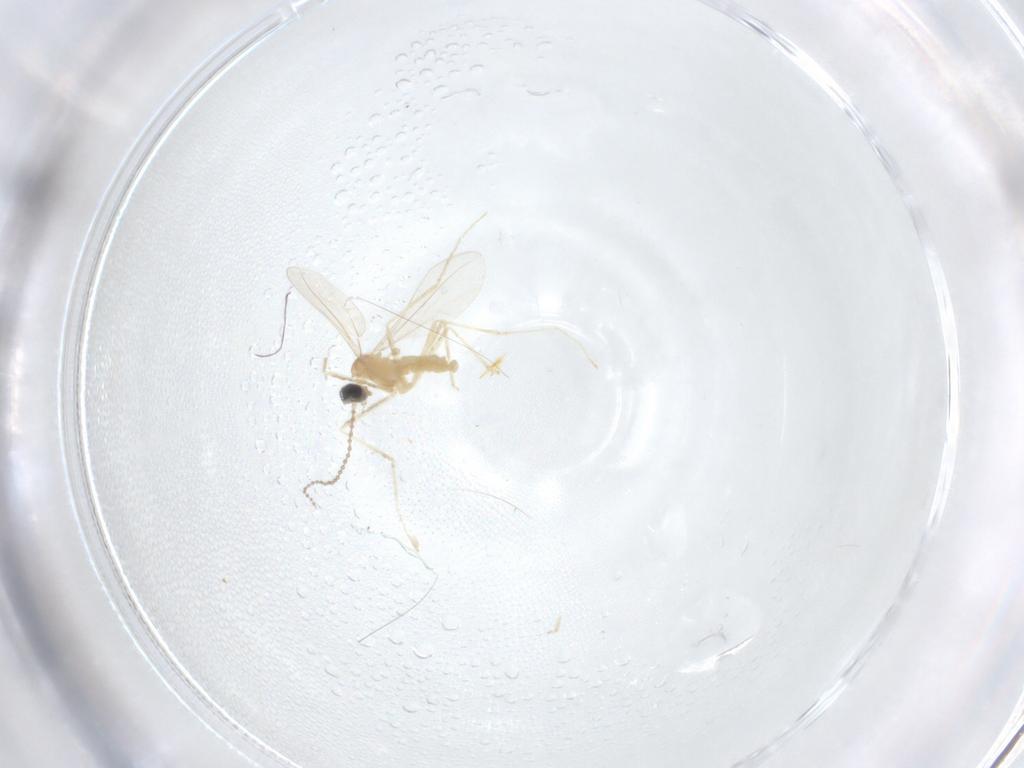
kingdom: Animalia
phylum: Arthropoda
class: Insecta
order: Diptera
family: Cecidomyiidae
